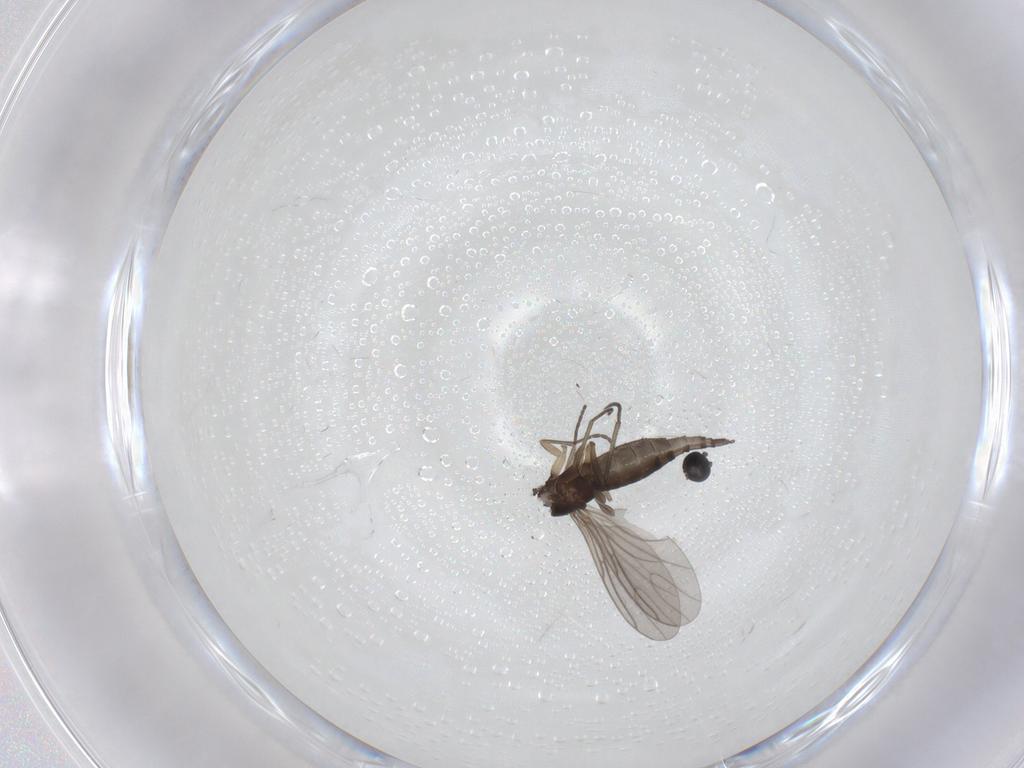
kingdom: Animalia
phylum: Arthropoda
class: Insecta
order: Diptera
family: Sciaridae
